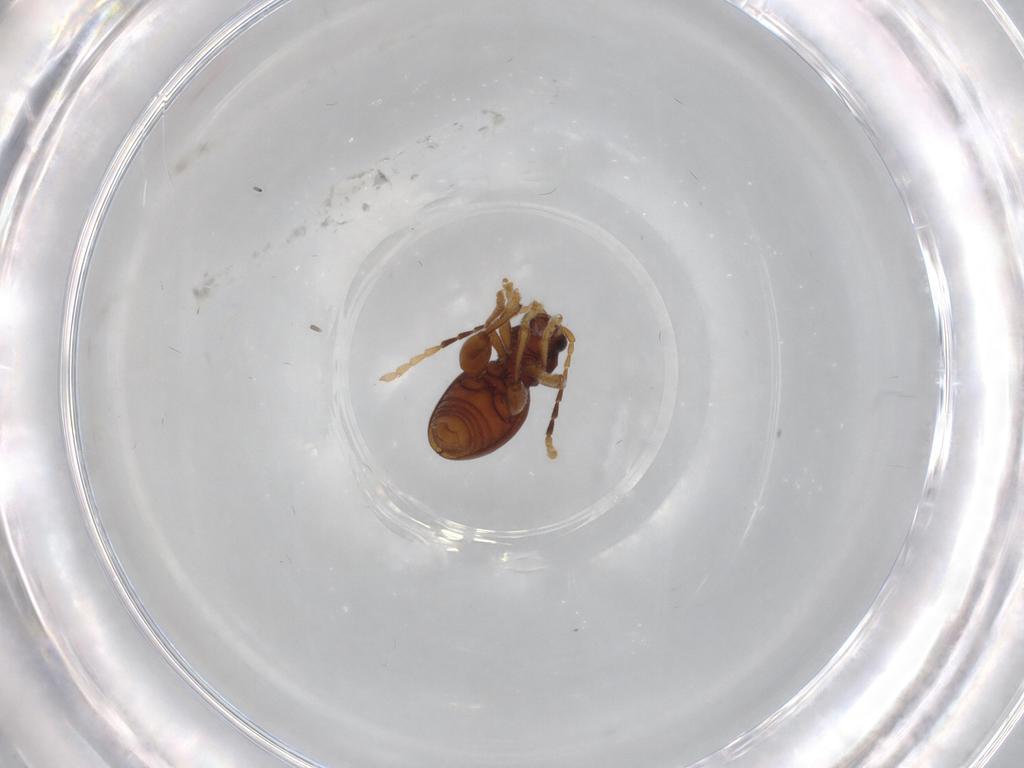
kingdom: Animalia
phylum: Arthropoda
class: Insecta
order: Coleoptera
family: Chrysomelidae
